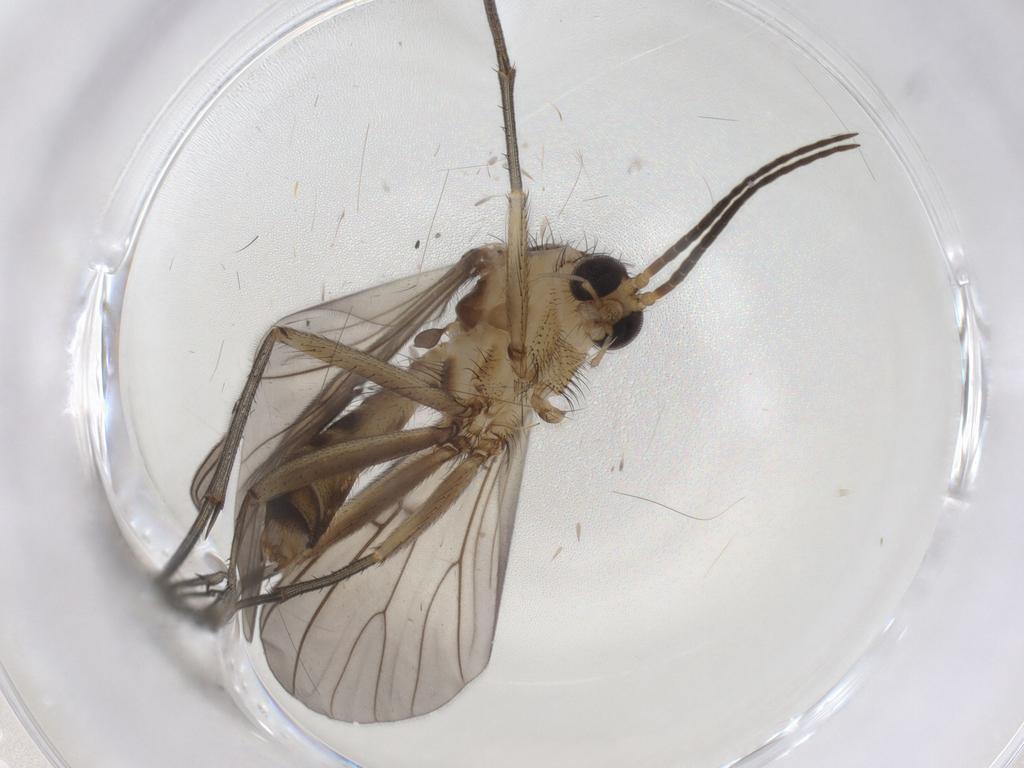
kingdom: Animalia
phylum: Arthropoda
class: Insecta
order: Diptera
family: Mycetophilidae
